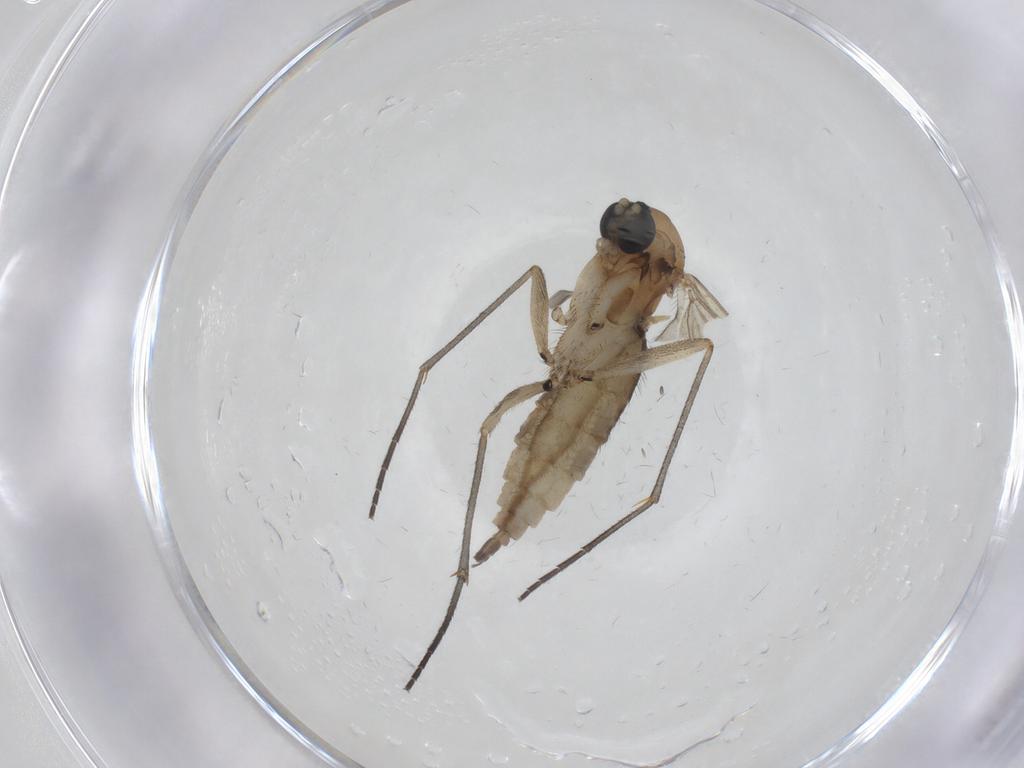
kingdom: Animalia
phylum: Arthropoda
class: Insecta
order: Diptera
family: Sciaridae
